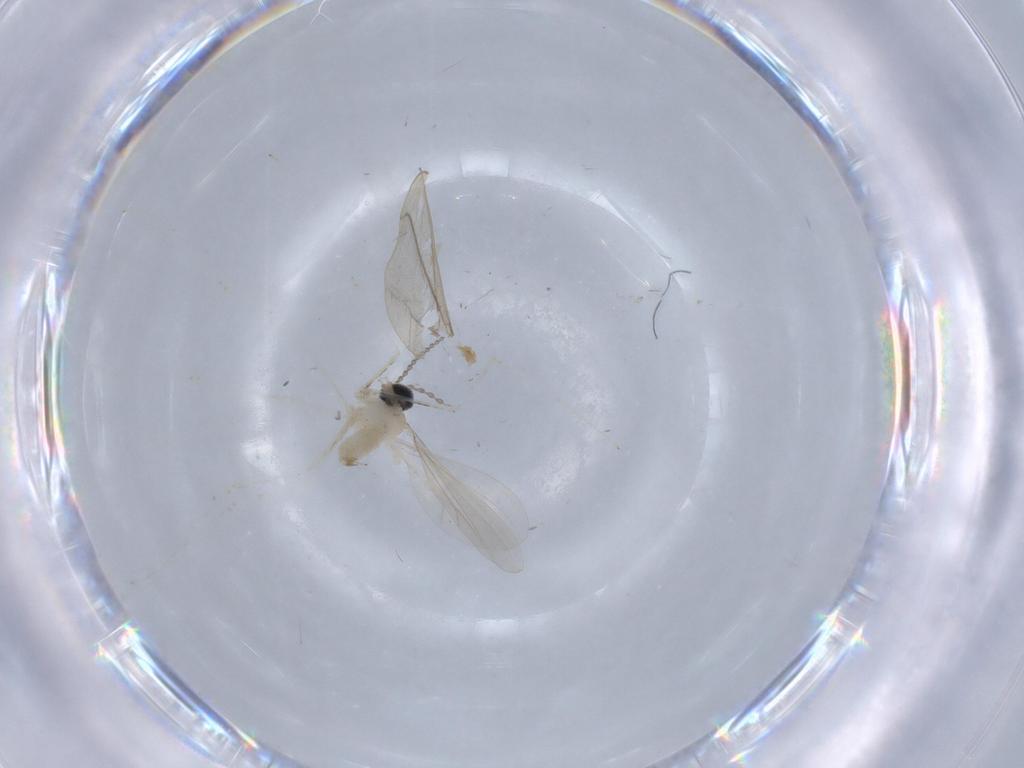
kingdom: Animalia
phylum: Arthropoda
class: Insecta
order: Diptera
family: Cecidomyiidae
